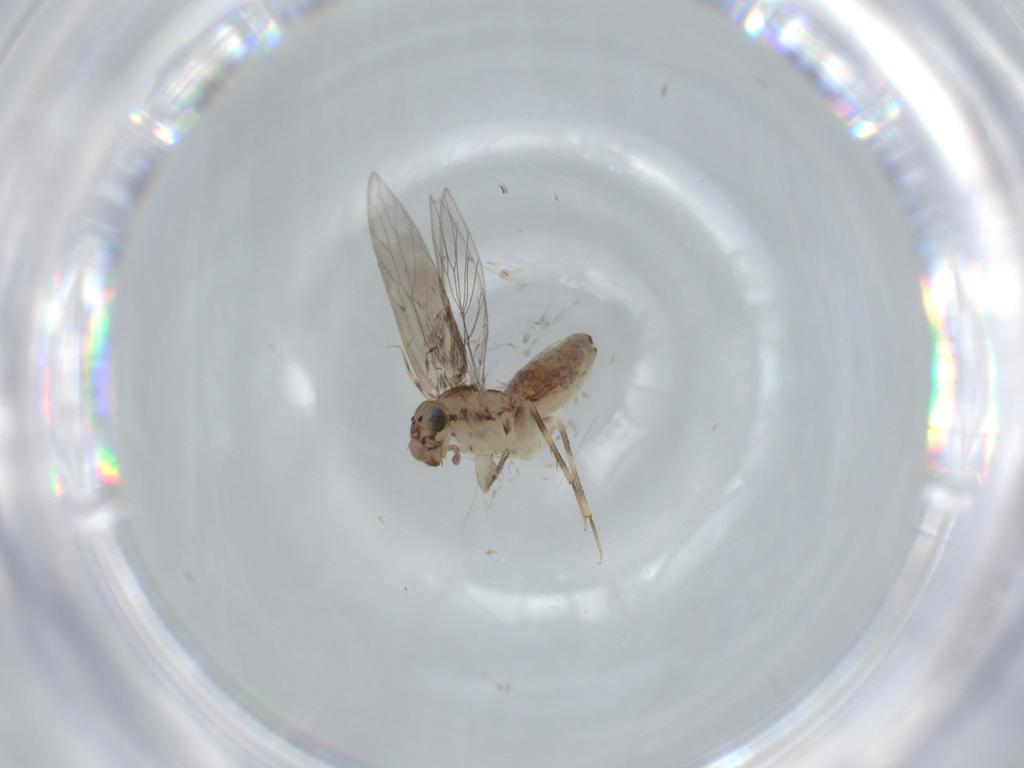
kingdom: Animalia
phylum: Arthropoda
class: Insecta
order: Psocodea
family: Lepidopsocidae
